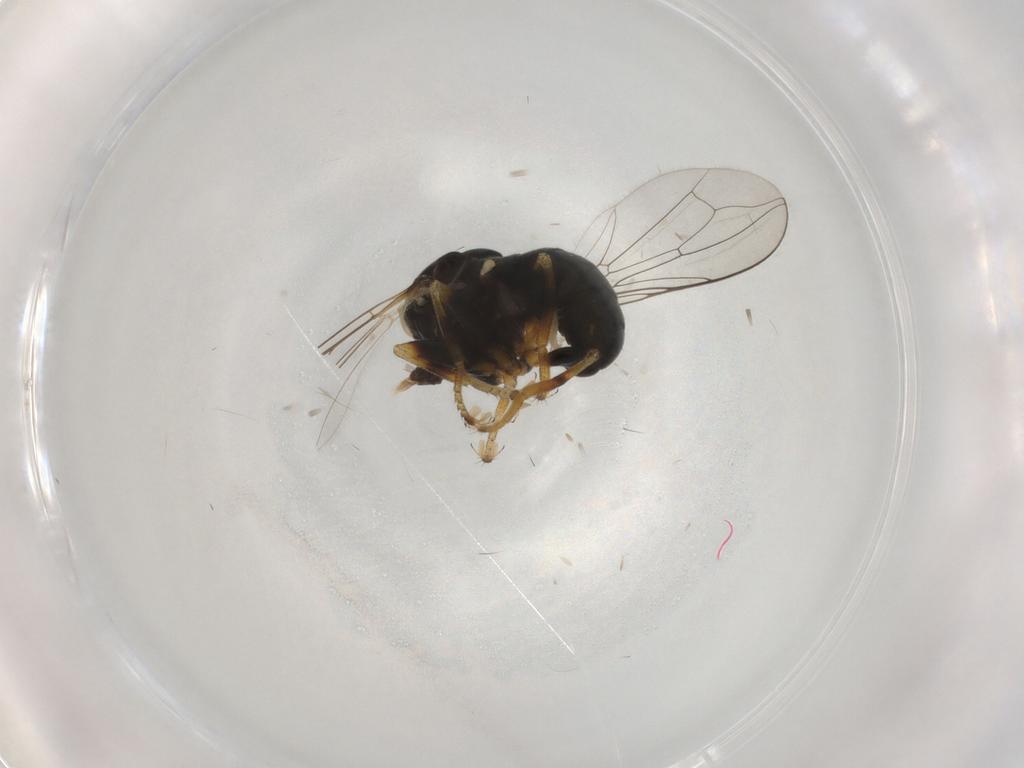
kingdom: Animalia
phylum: Arthropoda
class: Insecta
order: Diptera
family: Pipunculidae
